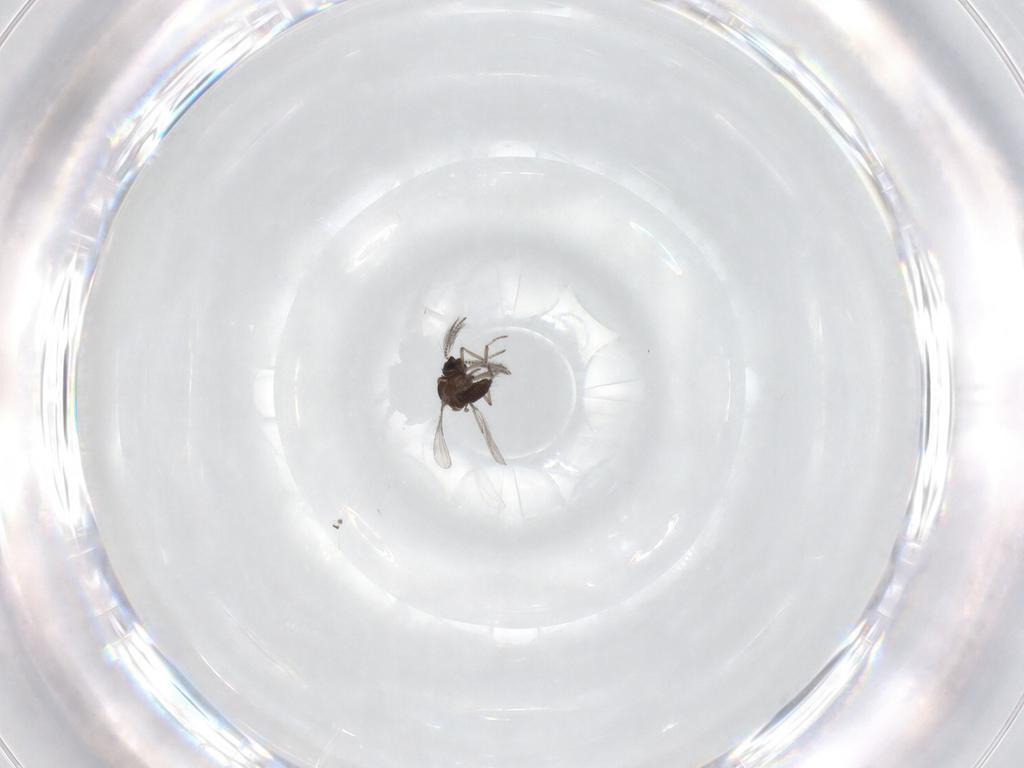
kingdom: Animalia
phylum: Arthropoda
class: Insecta
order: Diptera
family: Ceratopogonidae
